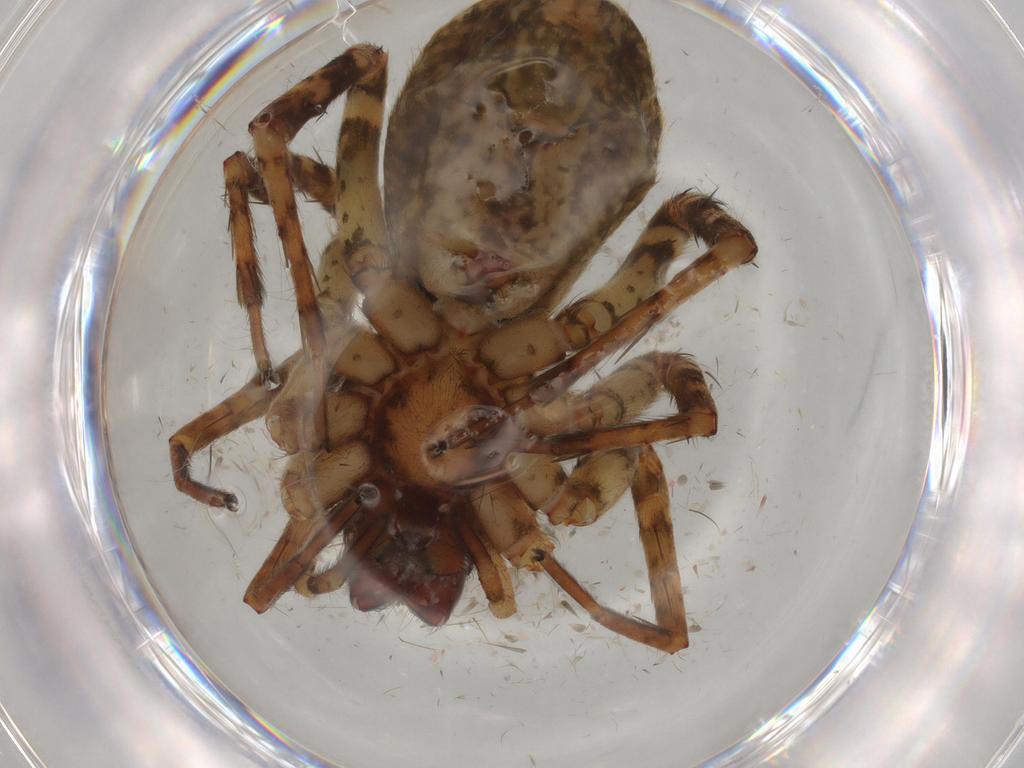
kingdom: Animalia
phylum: Arthropoda
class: Arachnida
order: Araneae
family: Anyphaenidae
